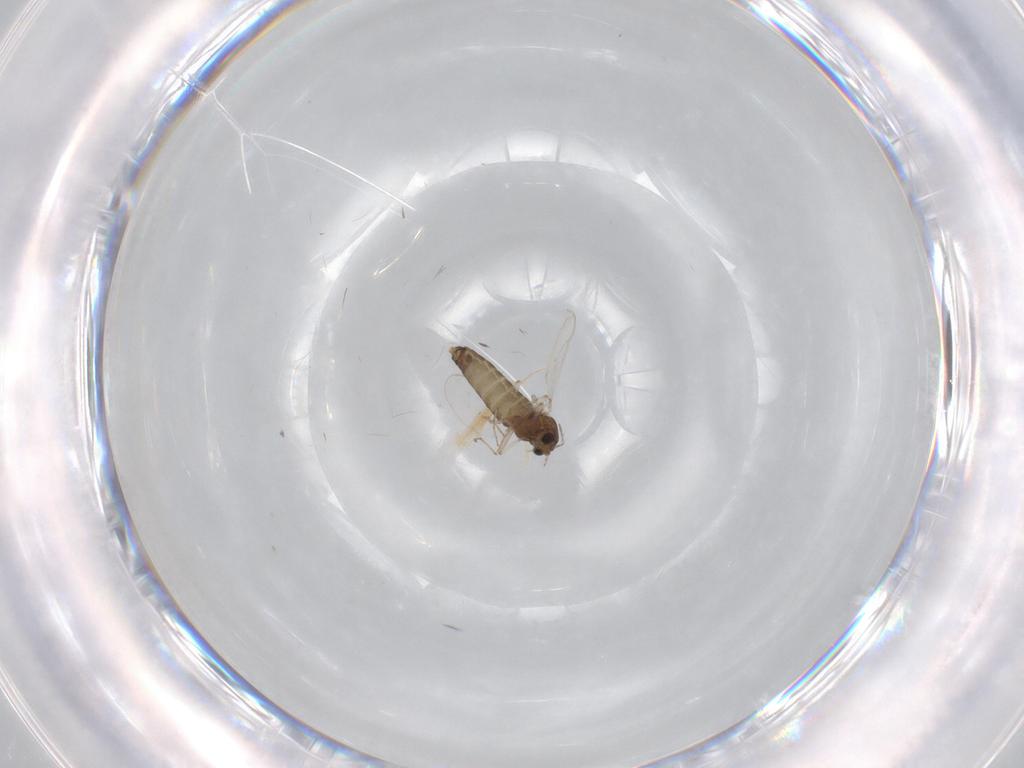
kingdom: Animalia
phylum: Arthropoda
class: Insecta
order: Diptera
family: Chironomidae
